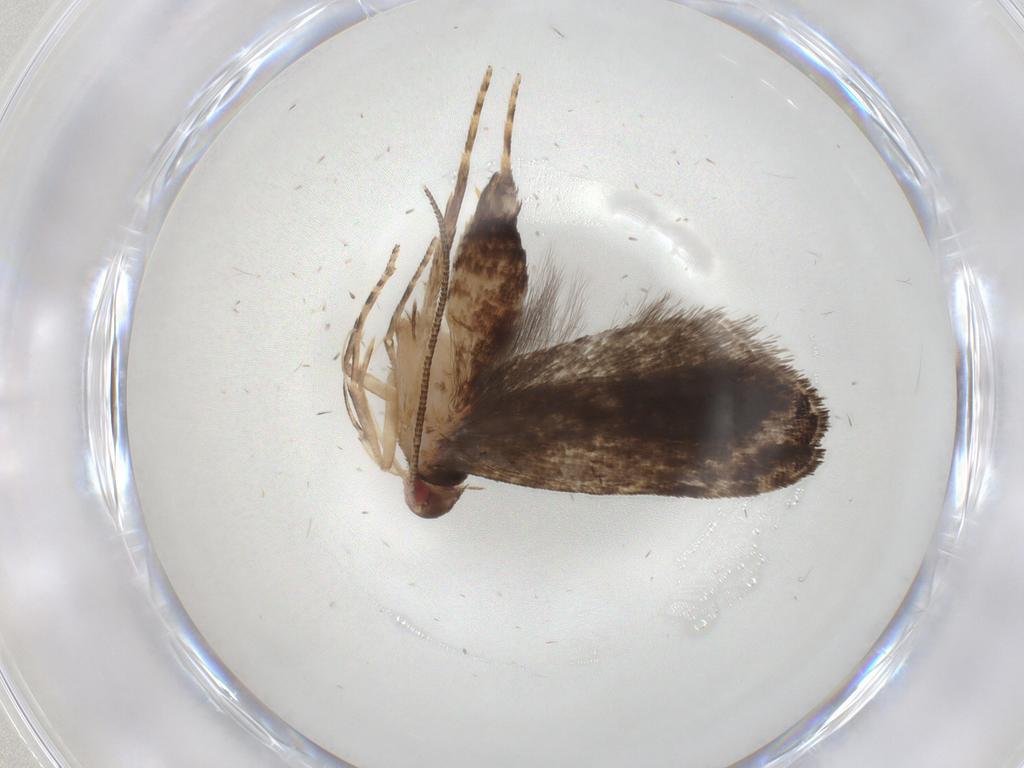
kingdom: Animalia
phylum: Arthropoda
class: Insecta
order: Lepidoptera
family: Gelechiidae
